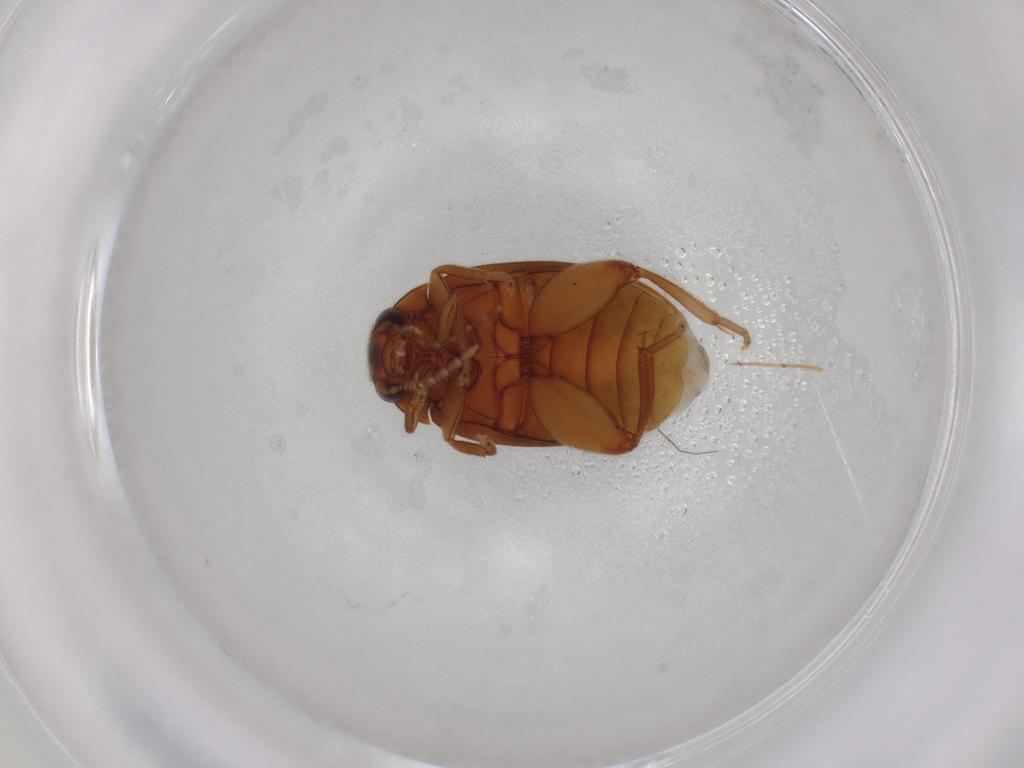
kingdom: Animalia
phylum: Arthropoda
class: Insecta
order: Coleoptera
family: Scirtidae
